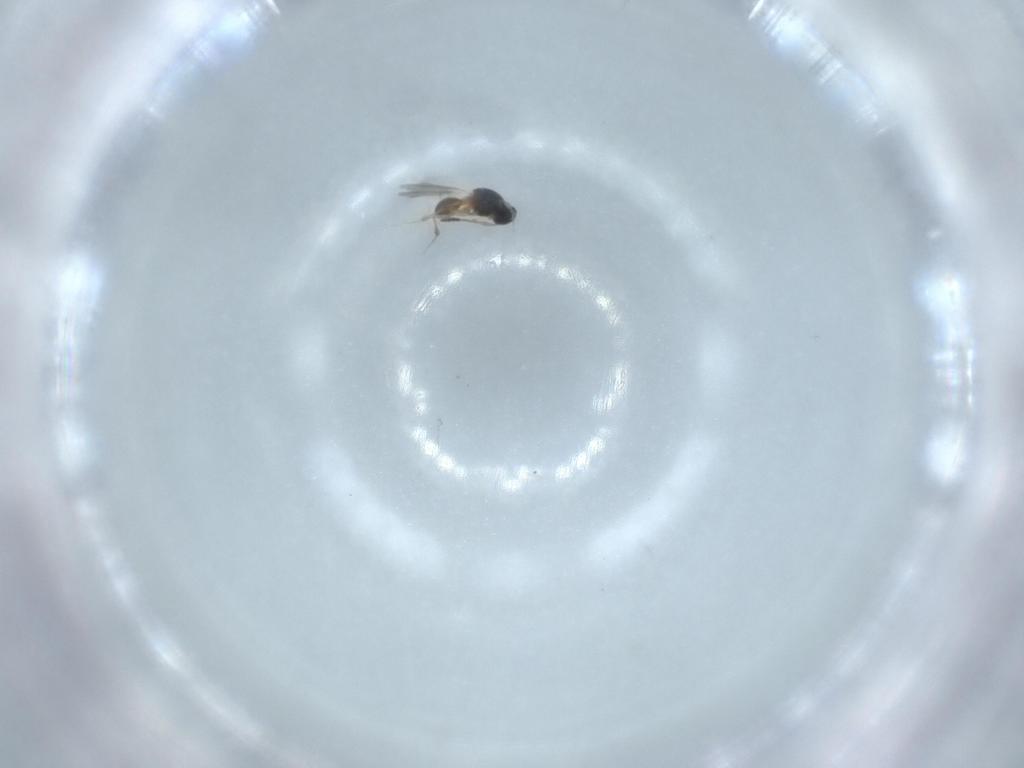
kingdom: Animalia
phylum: Arthropoda
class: Insecta
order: Hymenoptera
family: Platygastridae
